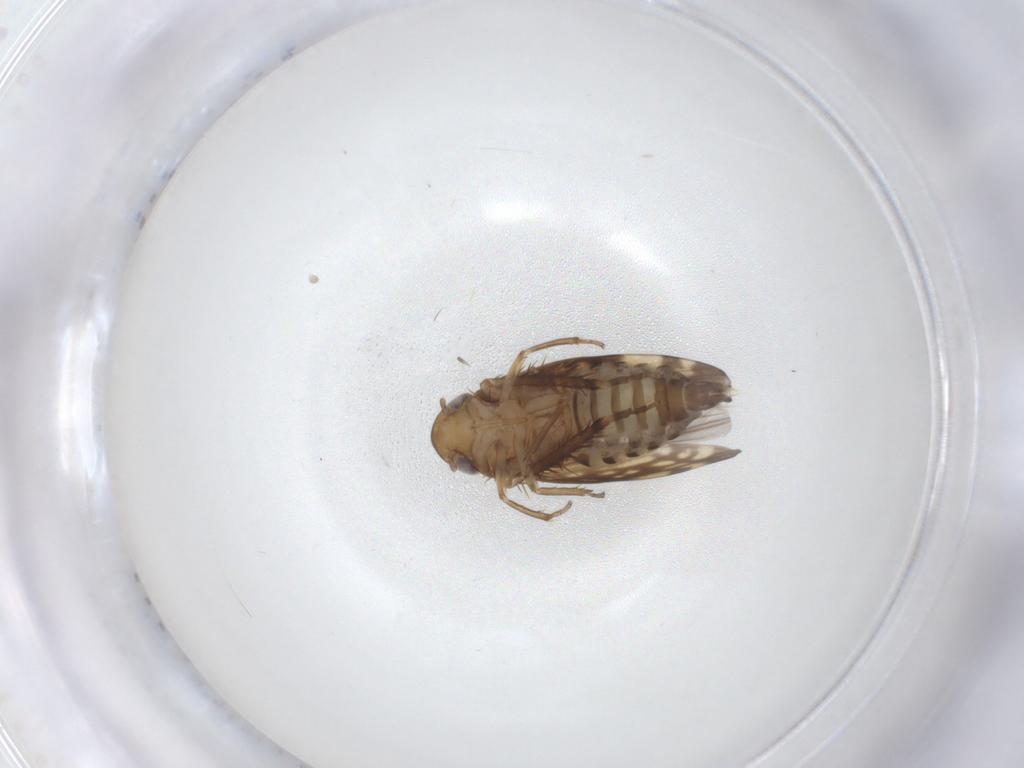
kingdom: Animalia
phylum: Arthropoda
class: Insecta
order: Hemiptera
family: Cicadellidae
